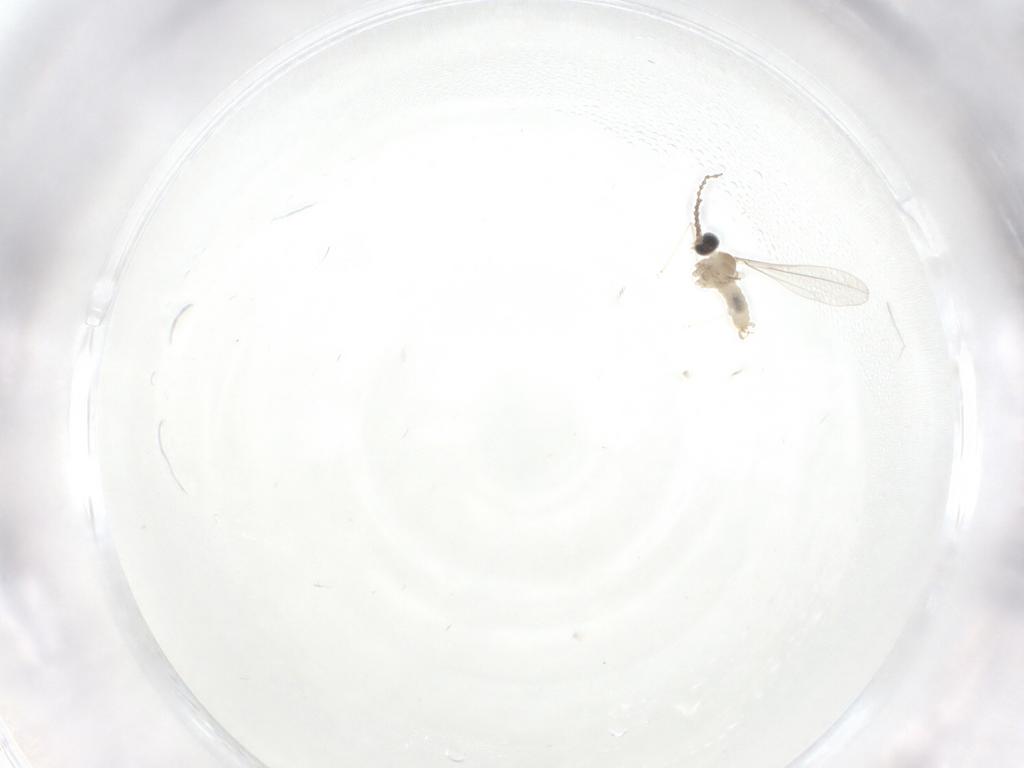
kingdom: Animalia
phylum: Arthropoda
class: Insecta
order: Diptera
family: Cecidomyiidae
